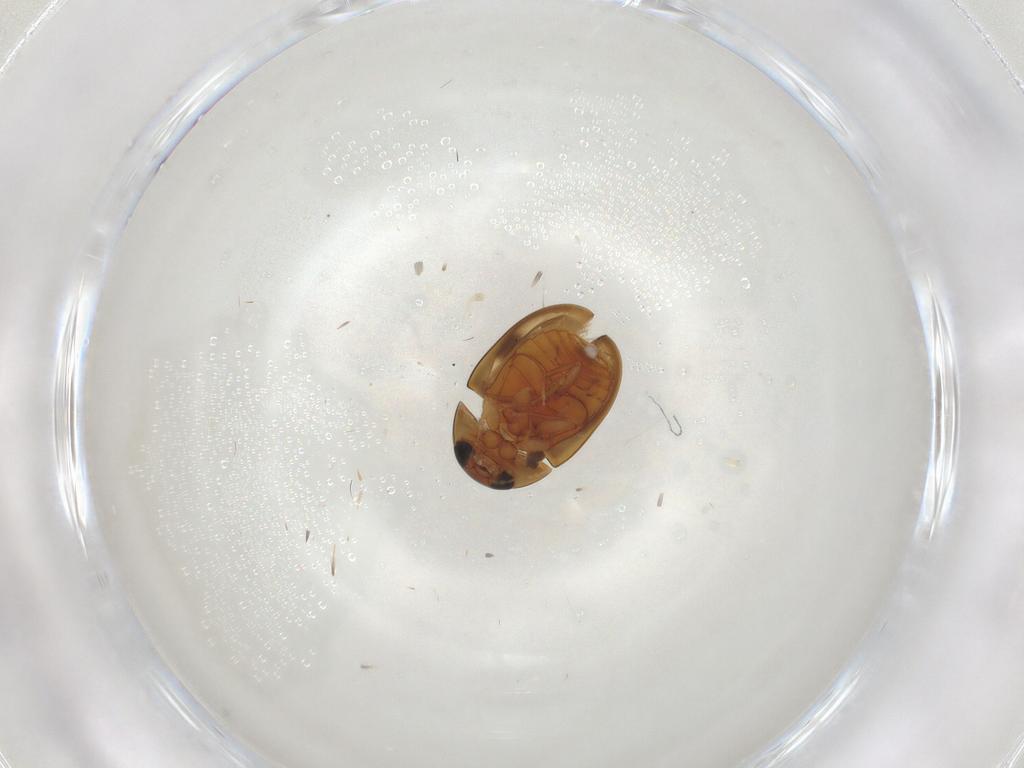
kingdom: Animalia
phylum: Arthropoda
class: Insecta
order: Coleoptera
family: Phalacridae
